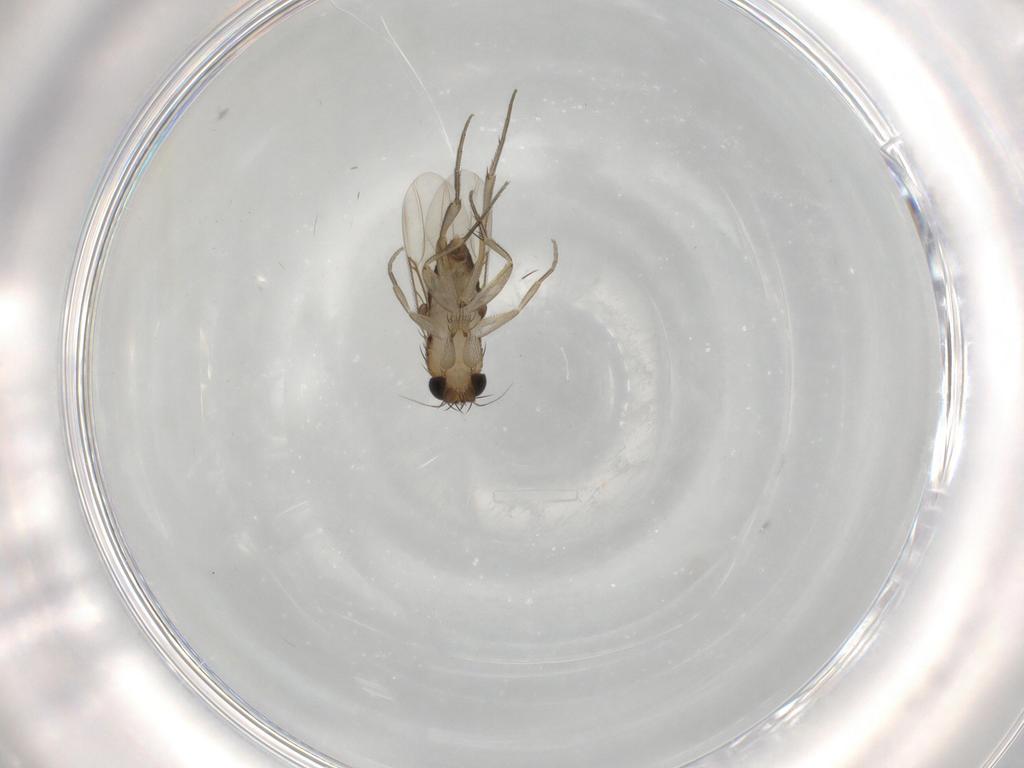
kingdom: Animalia
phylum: Arthropoda
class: Insecta
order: Diptera
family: Phoridae
